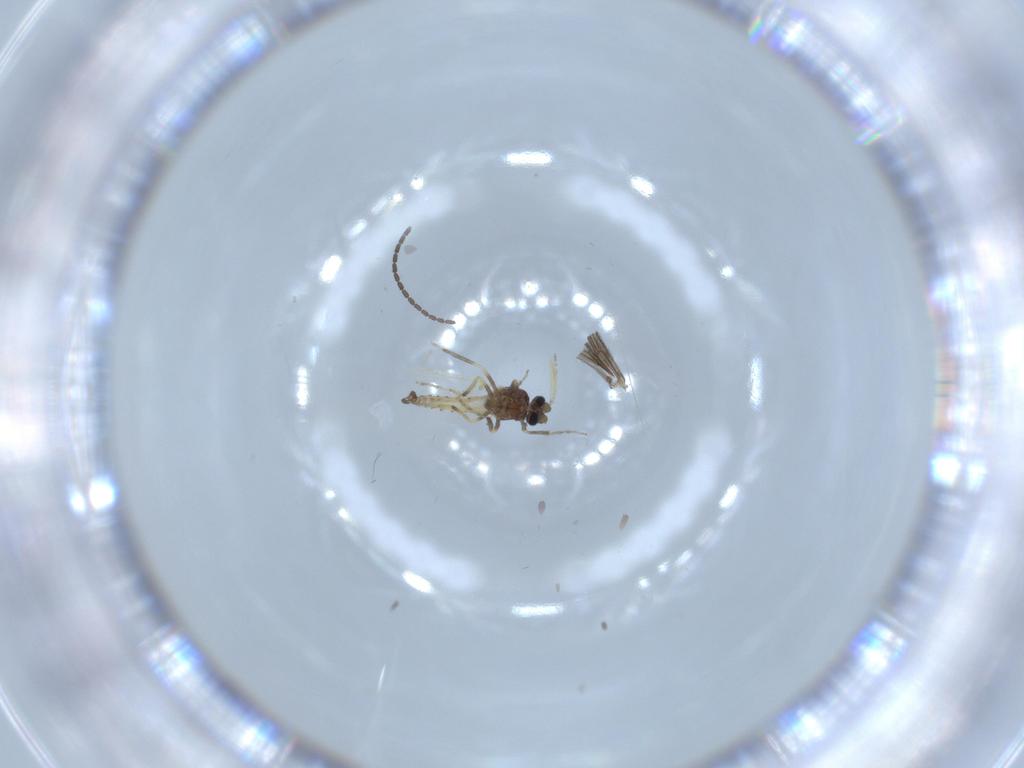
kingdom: Animalia
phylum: Arthropoda
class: Insecta
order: Diptera
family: Ceratopogonidae
